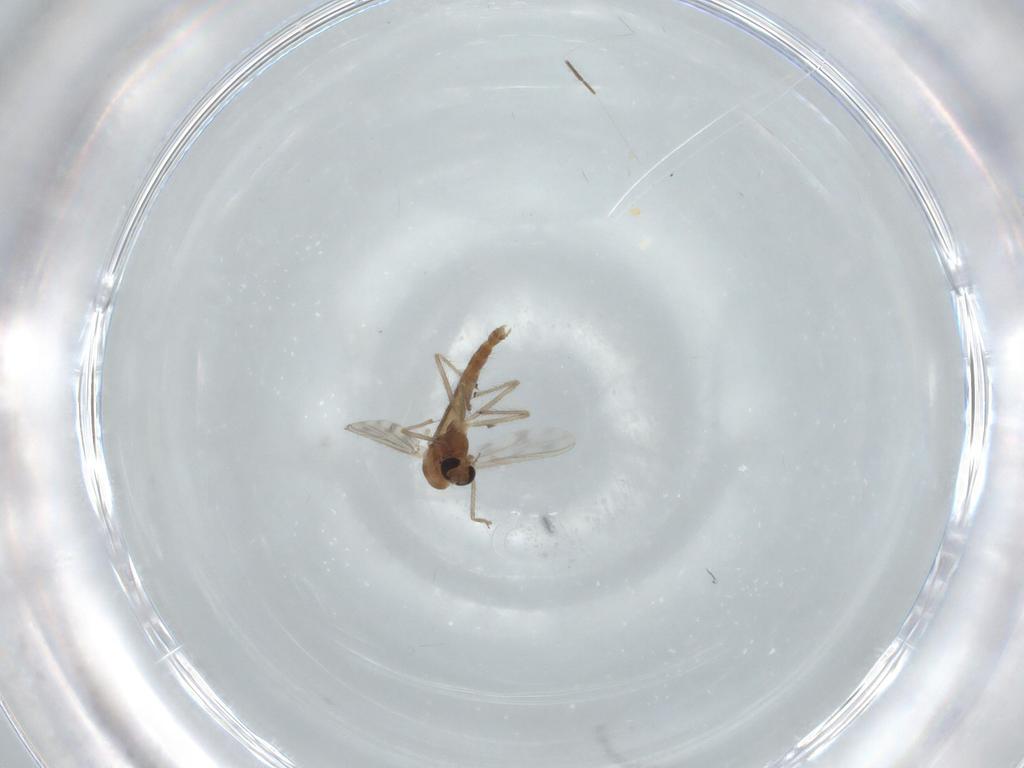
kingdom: Animalia
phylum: Arthropoda
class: Insecta
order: Diptera
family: Chironomidae
